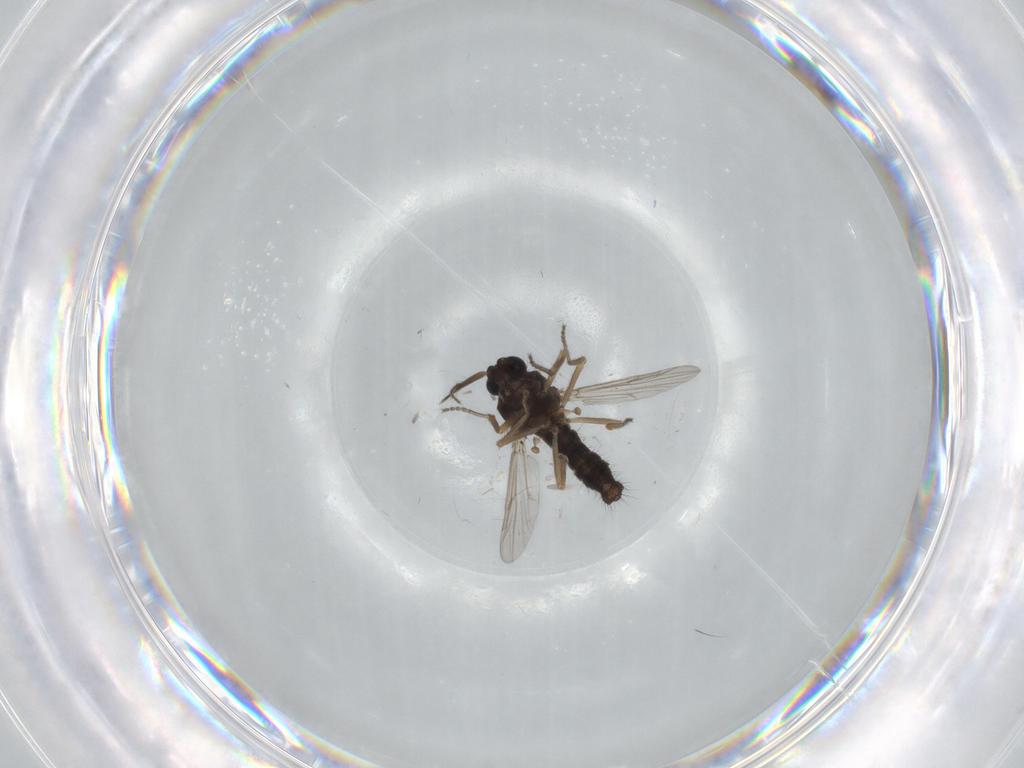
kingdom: Animalia
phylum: Arthropoda
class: Insecta
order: Diptera
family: Ceratopogonidae
